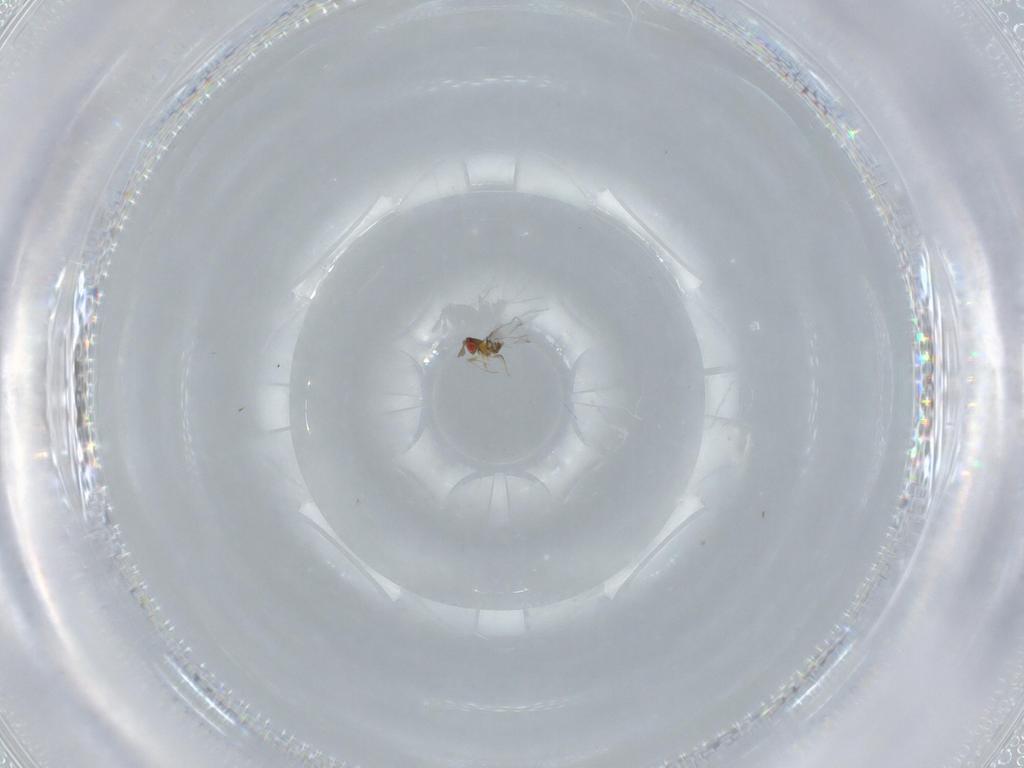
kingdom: Animalia
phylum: Arthropoda
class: Insecta
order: Hymenoptera
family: Trichogrammatidae
